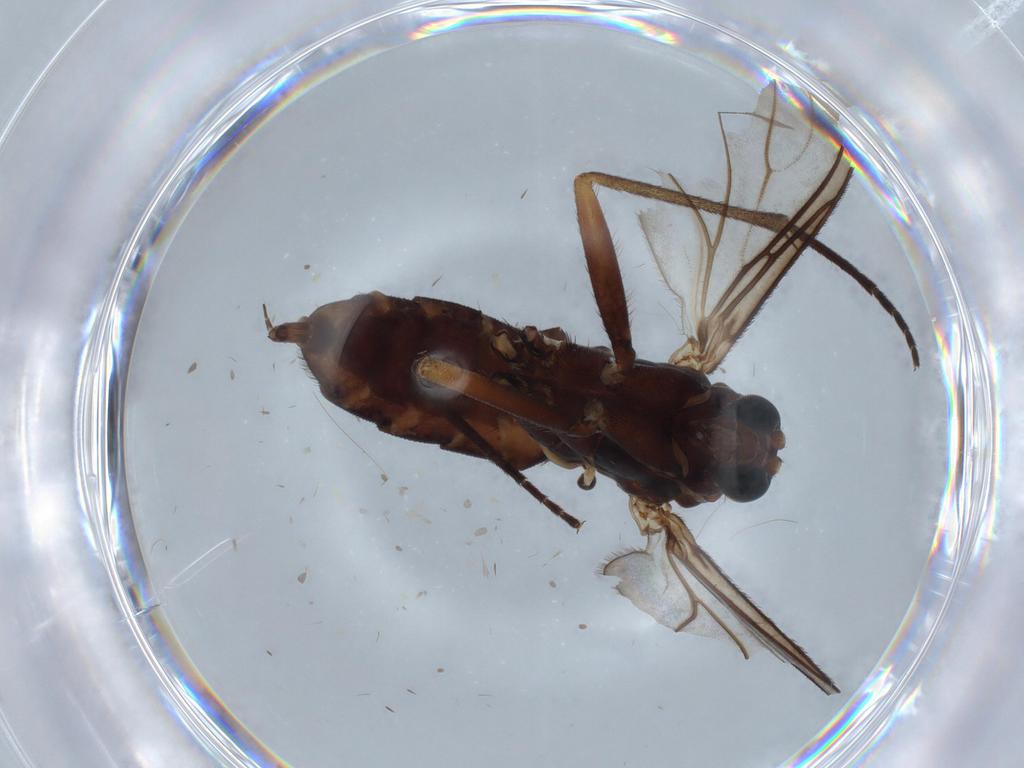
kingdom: Animalia
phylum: Arthropoda
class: Insecta
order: Diptera
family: Sciaridae
